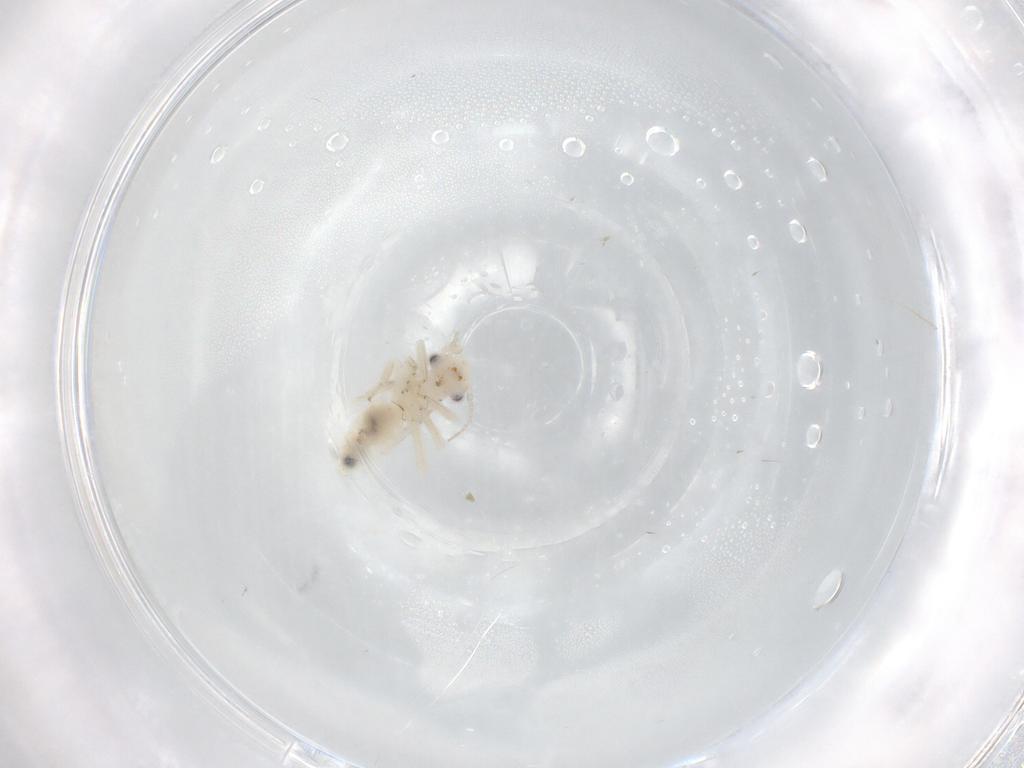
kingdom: Animalia
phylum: Arthropoda
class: Insecta
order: Psocodea
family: Lepidopsocidae
